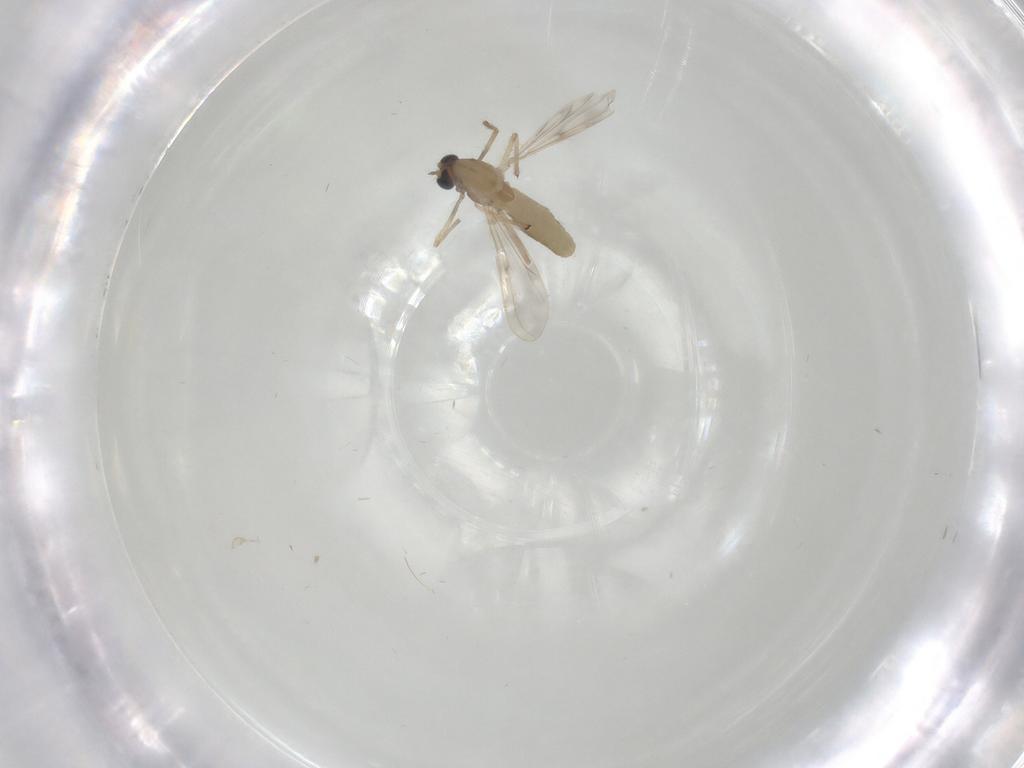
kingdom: Animalia
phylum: Arthropoda
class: Insecta
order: Diptera
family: Chironomidae
